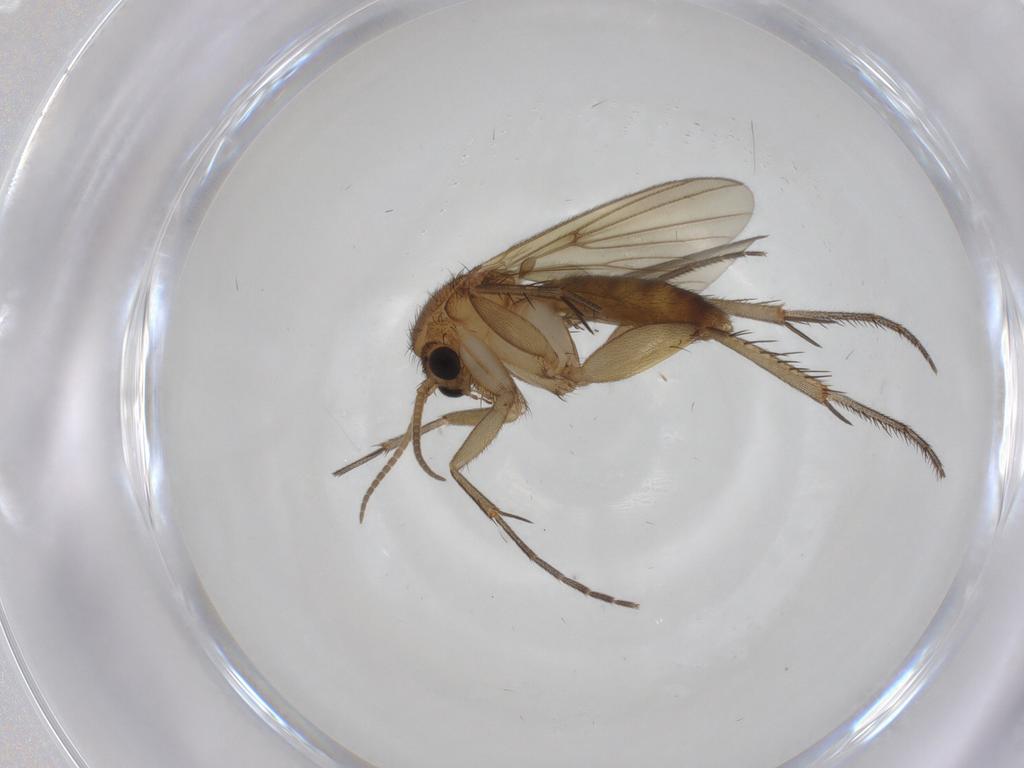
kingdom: Animalia
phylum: Arthropoda
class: Insecta
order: Diptera
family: Mycetophilidae
